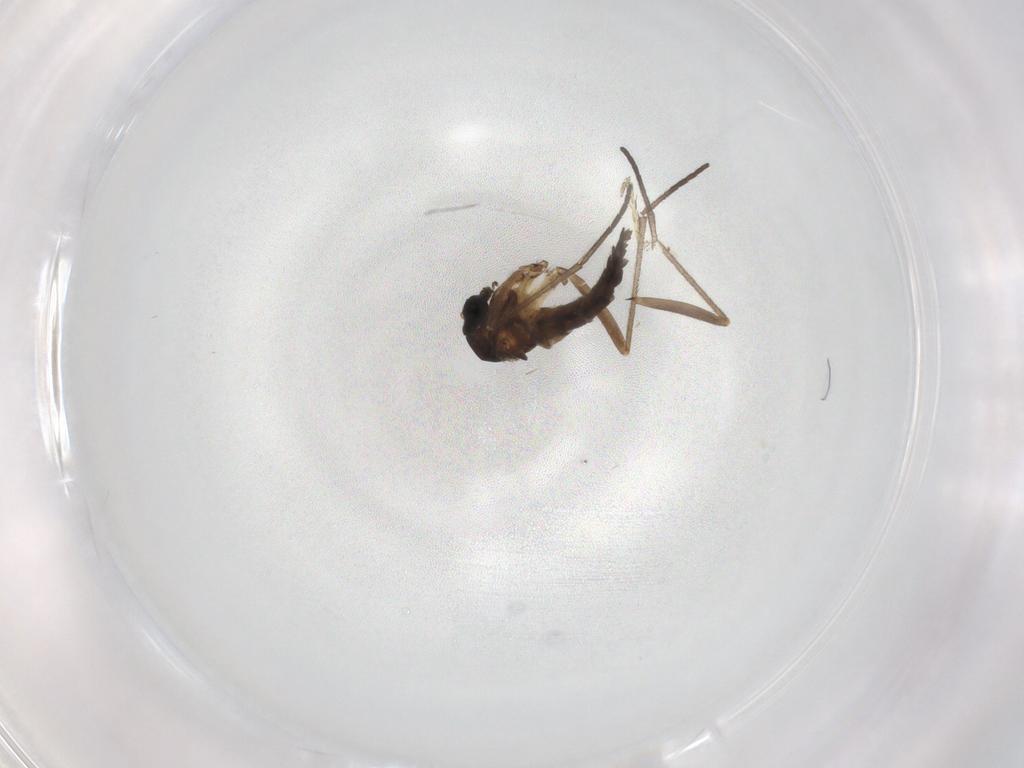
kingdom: Animalia
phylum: Arthropoda
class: Insecta
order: Diptera
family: Sciaridae
